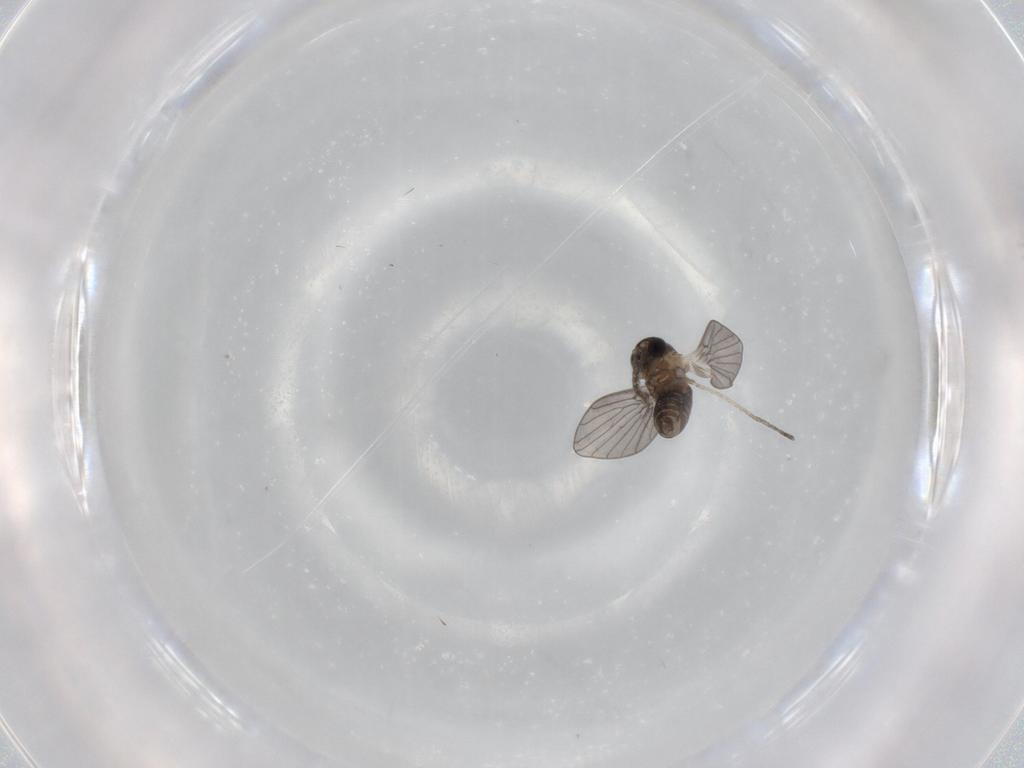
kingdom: Animalia
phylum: Arthropoda
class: Insecta
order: Diptera
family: Psychodidae
